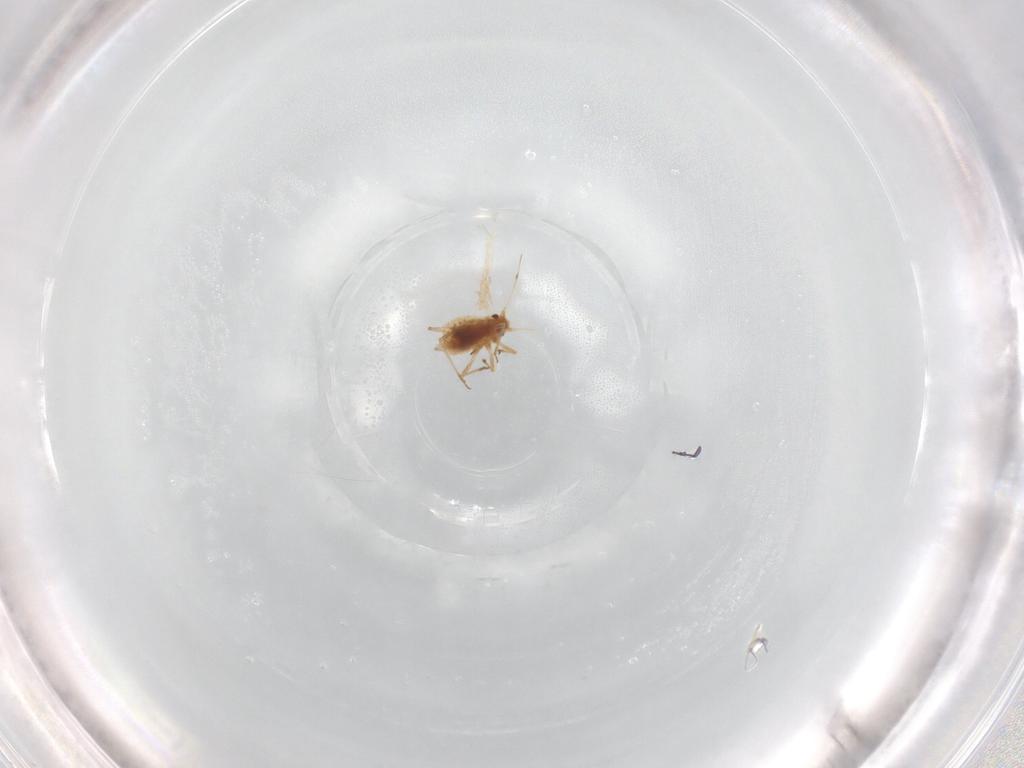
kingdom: Animalia
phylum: Arthropoda
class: Insecta
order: Hemiptera
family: Aphididae
